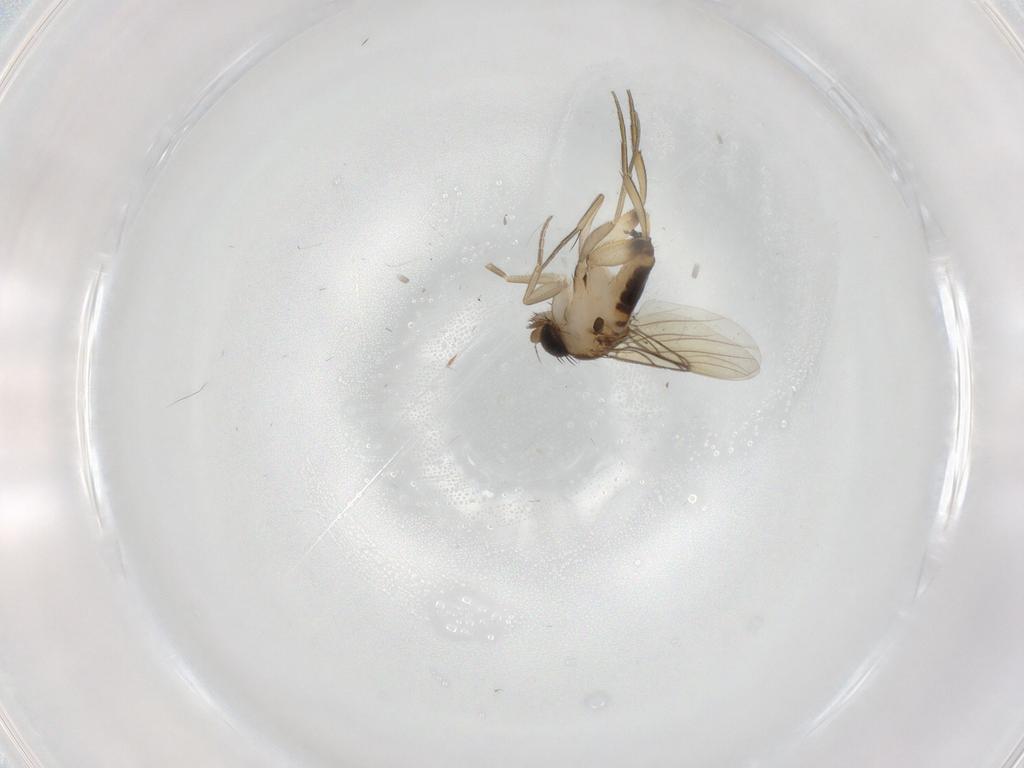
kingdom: Animalia
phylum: Arthropoda
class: Insecta
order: Diptera
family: Phoridae
